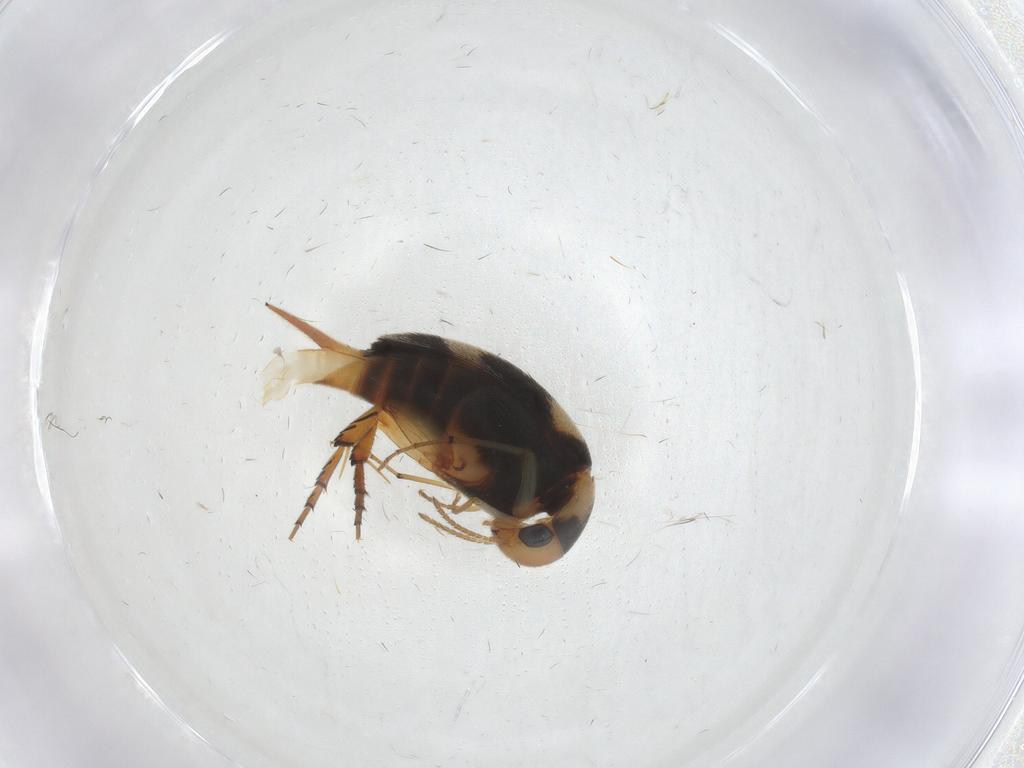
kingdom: Animalia
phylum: Arthropoda
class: Insecta
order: Coleoptera
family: Mordellidae
